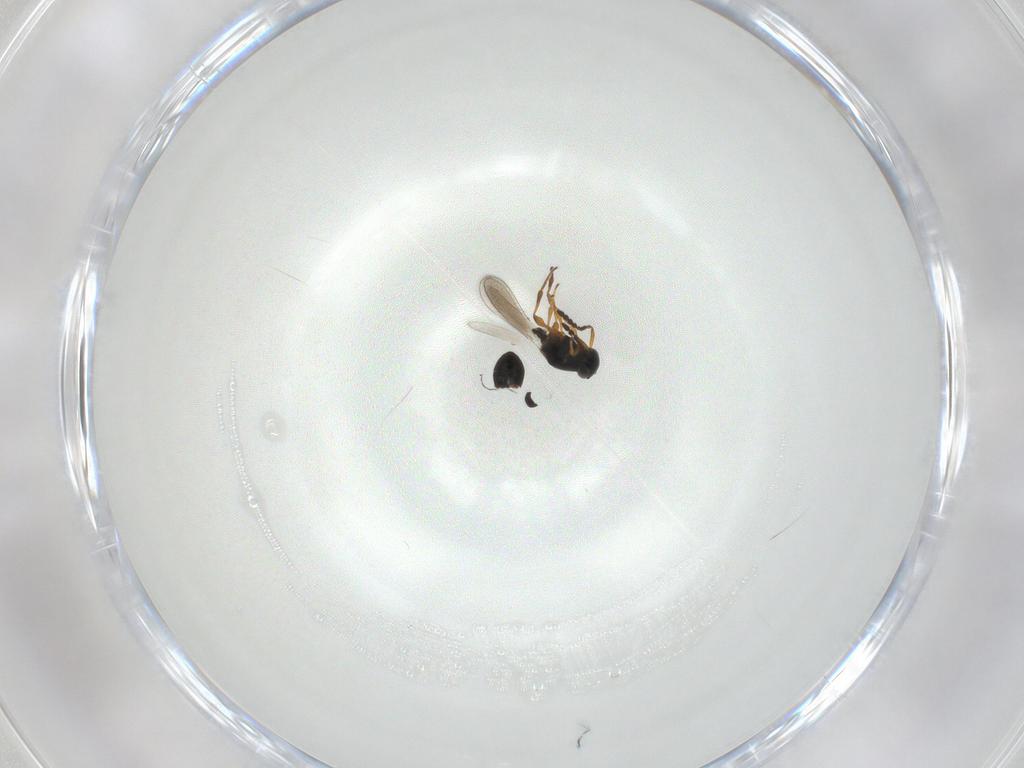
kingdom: Animalia
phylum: Arthropoda
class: Insecta
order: Hymenoptera
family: Platygastridae
